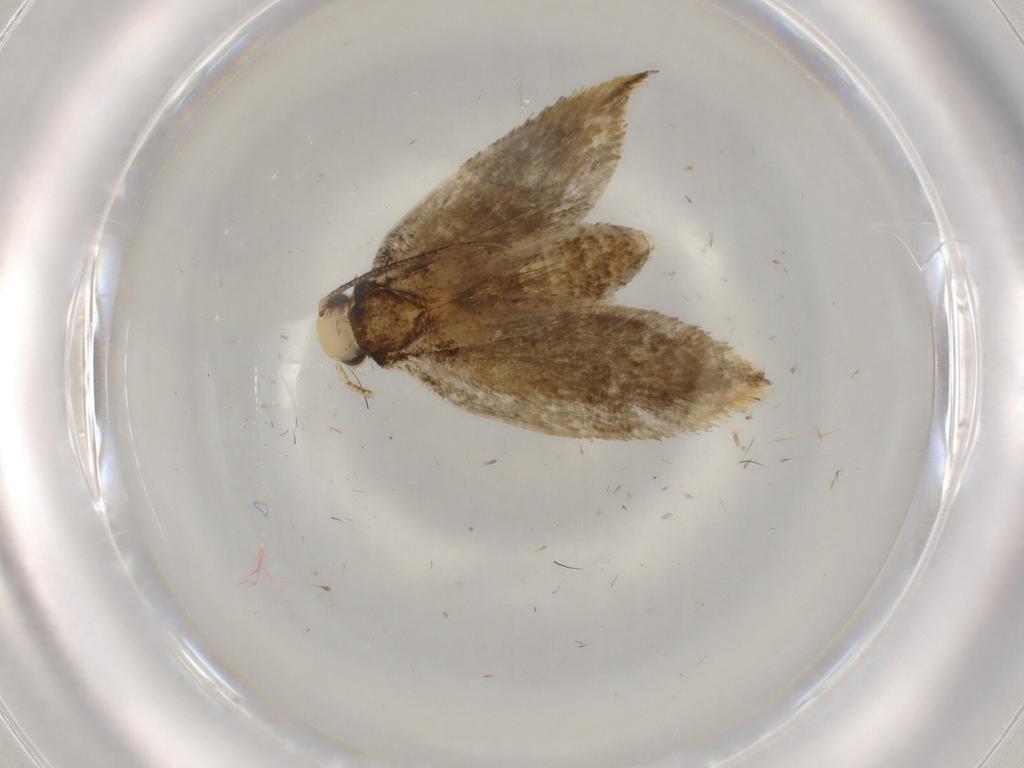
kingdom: Animalia
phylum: Arthropoda
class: Insecta
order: Lepidoptera
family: Pieridae
